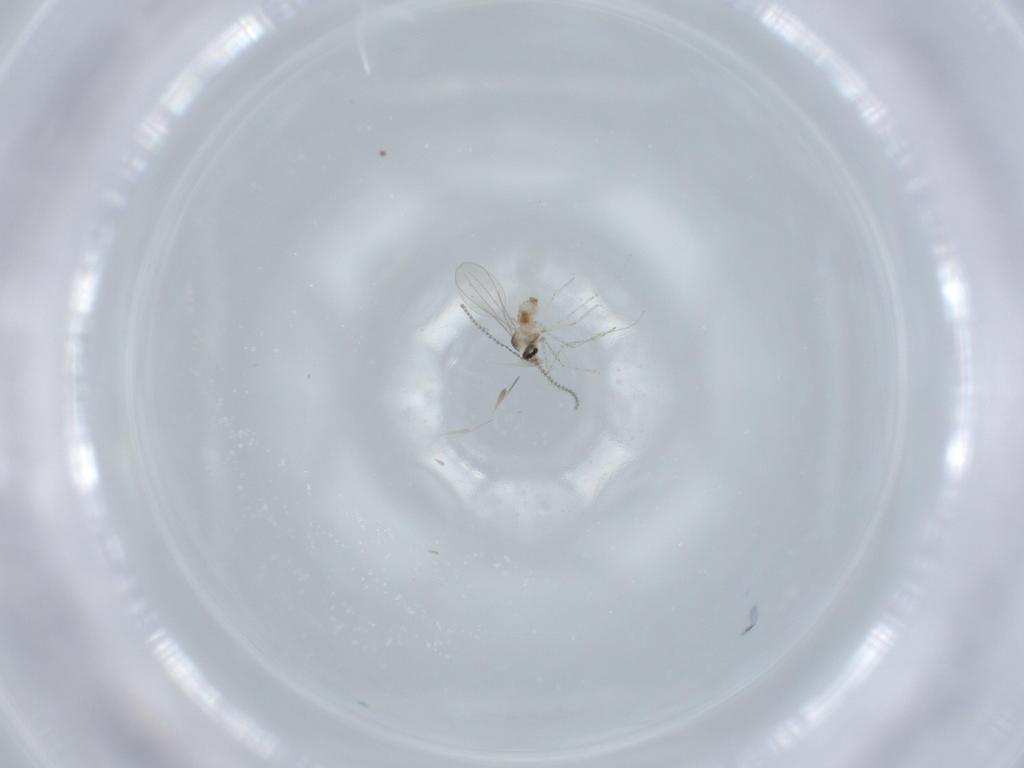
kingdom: Animalia
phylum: Arthropoda
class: Insecta
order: Diptera
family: Cecidomyiidae
